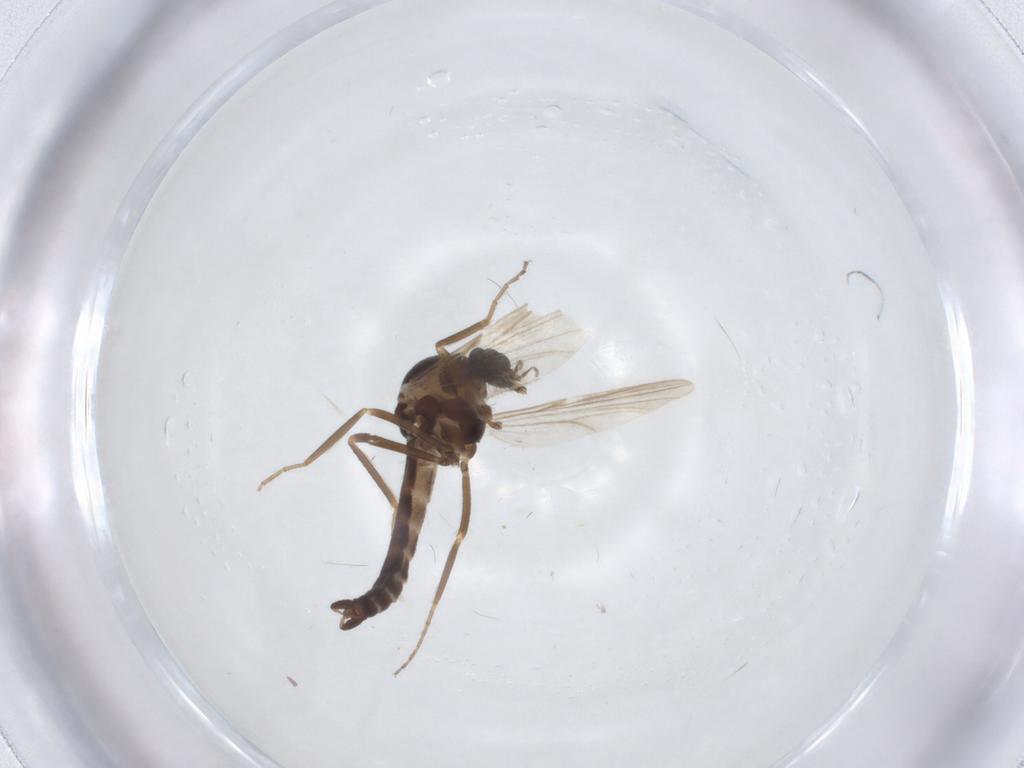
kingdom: Animalia
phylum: Arthropoda
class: Insecta
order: Diptera
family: Ceratopogonidae
